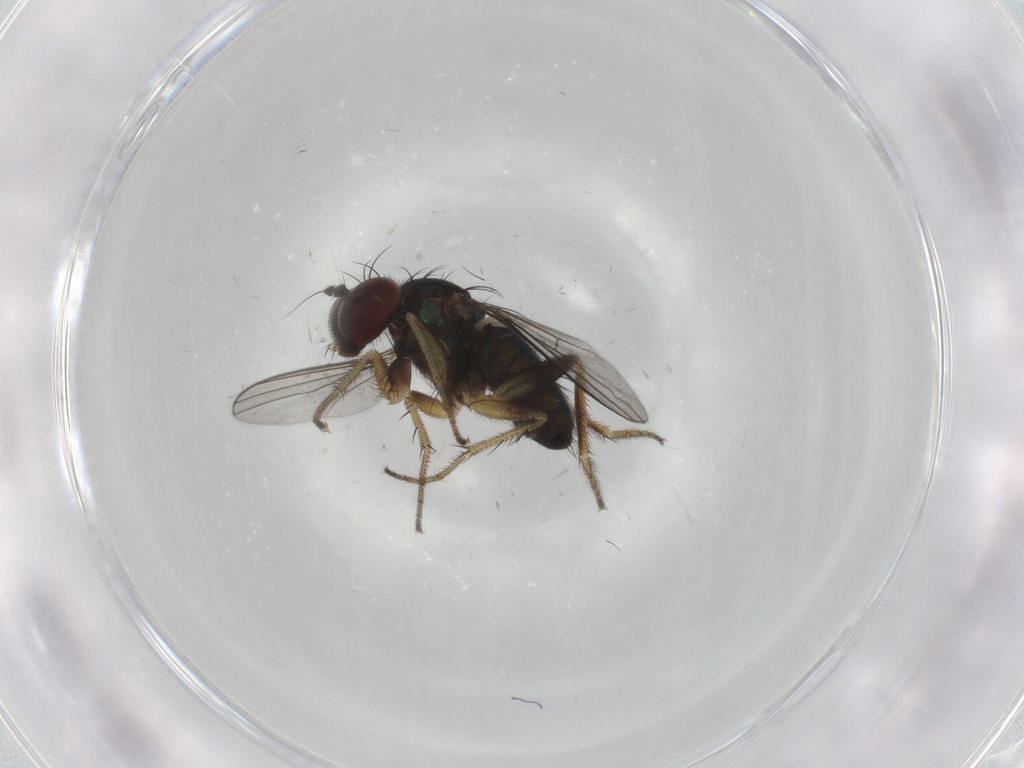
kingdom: Animalia
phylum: Arthropoda
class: Insecta
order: Diptera
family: Dolichopodidae
